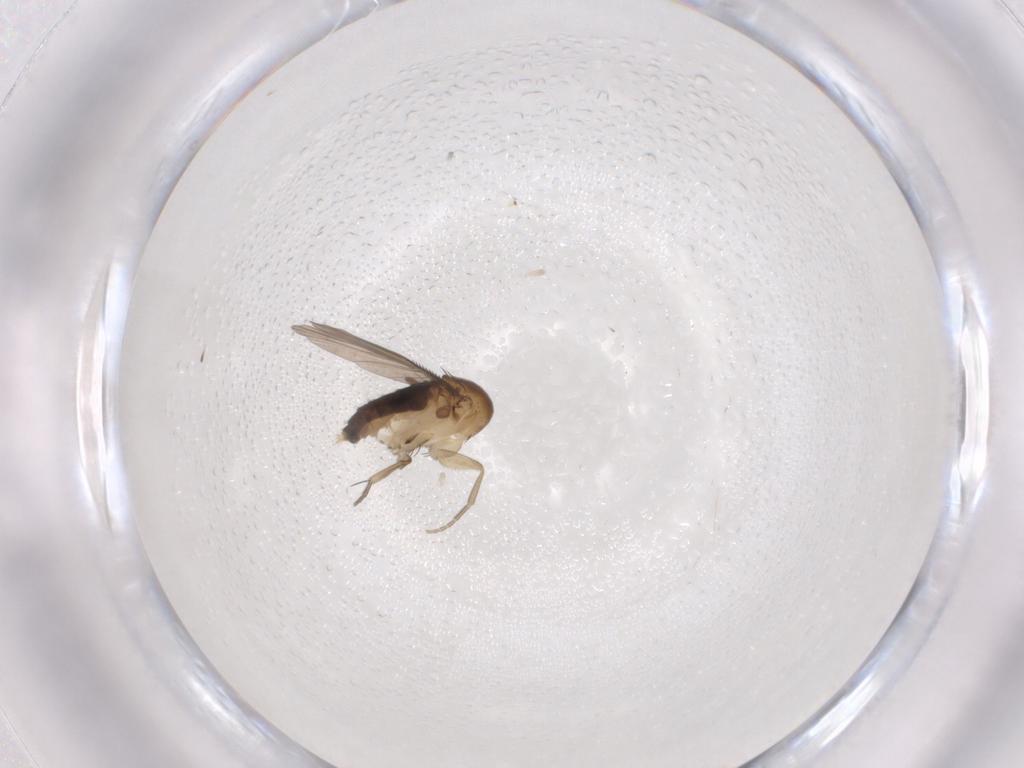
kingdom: Animalia
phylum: Arthropoda
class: Insecta
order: Diptera
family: Phoridae
